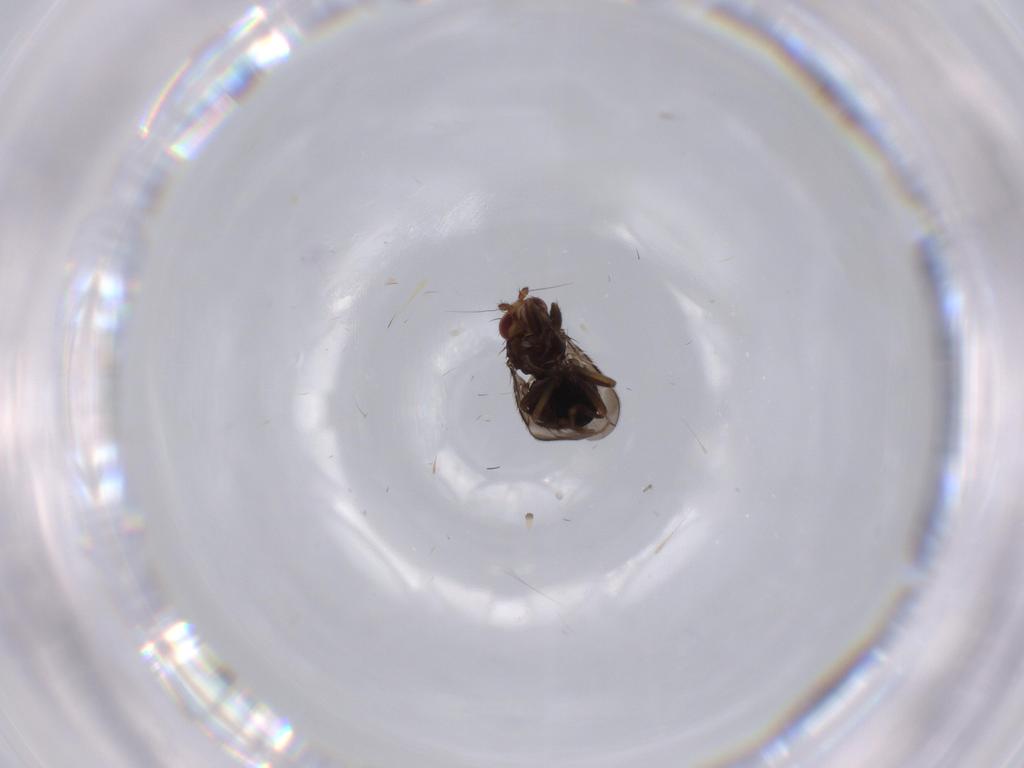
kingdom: Animalia
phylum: Arthropoda
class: Insecta
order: Diptera
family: Sphaeroceridae
